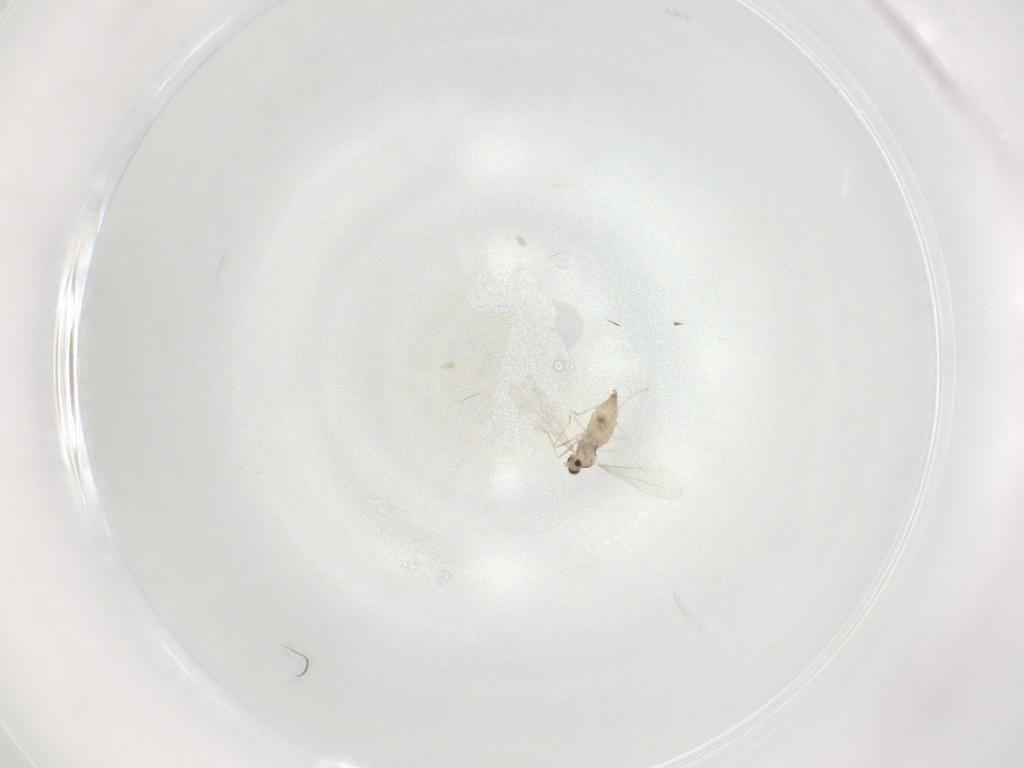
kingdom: Animalia
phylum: Arthropoda
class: Insecta
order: Diptera
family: Cecidomyiidae
